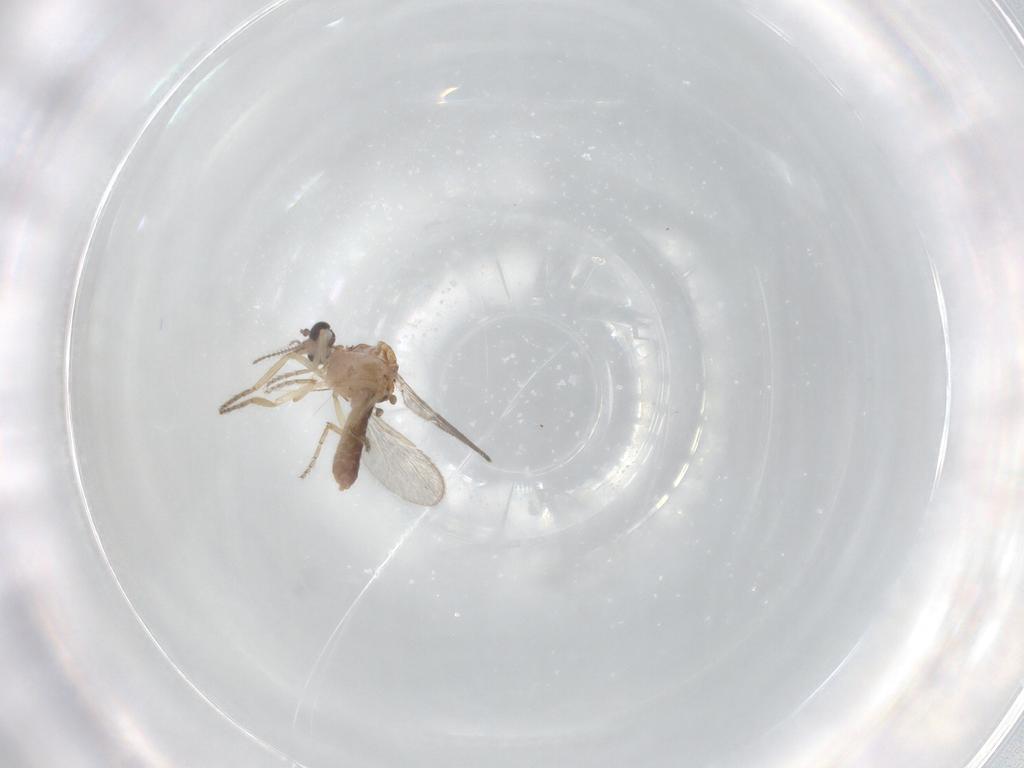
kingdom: Animalia
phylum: Arthropoda
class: Insecta
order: Diptera
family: Ceratopogonidae
